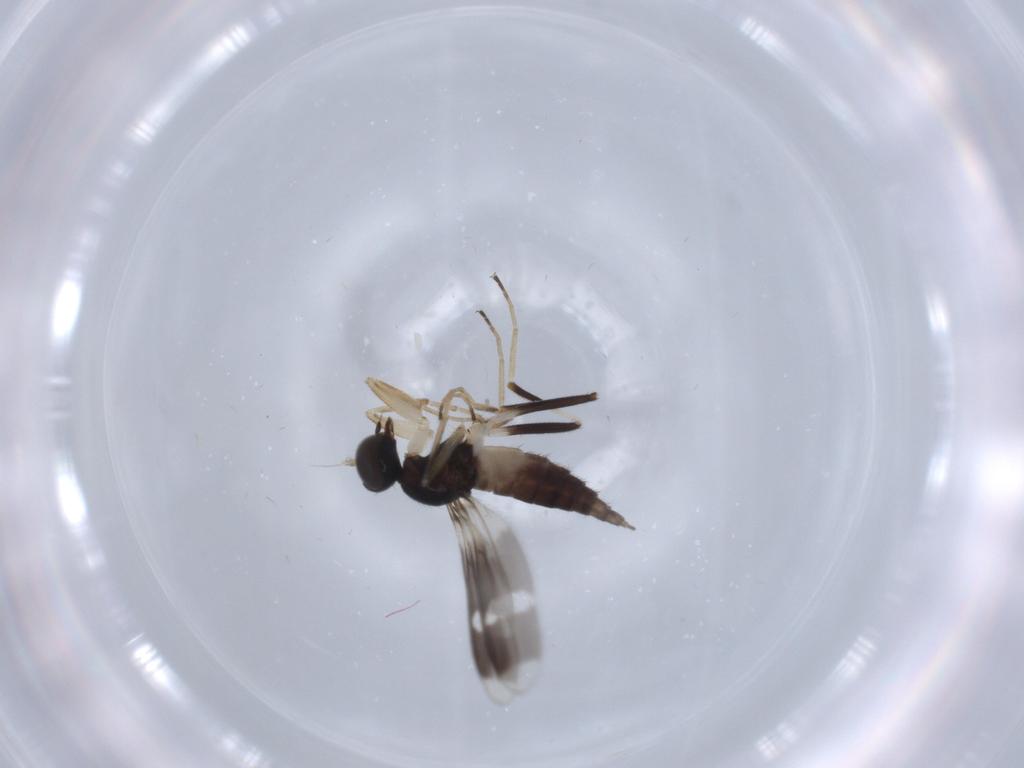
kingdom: Animalia
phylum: Arthropoda
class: Insecta
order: Diptera
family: Hybotidae
